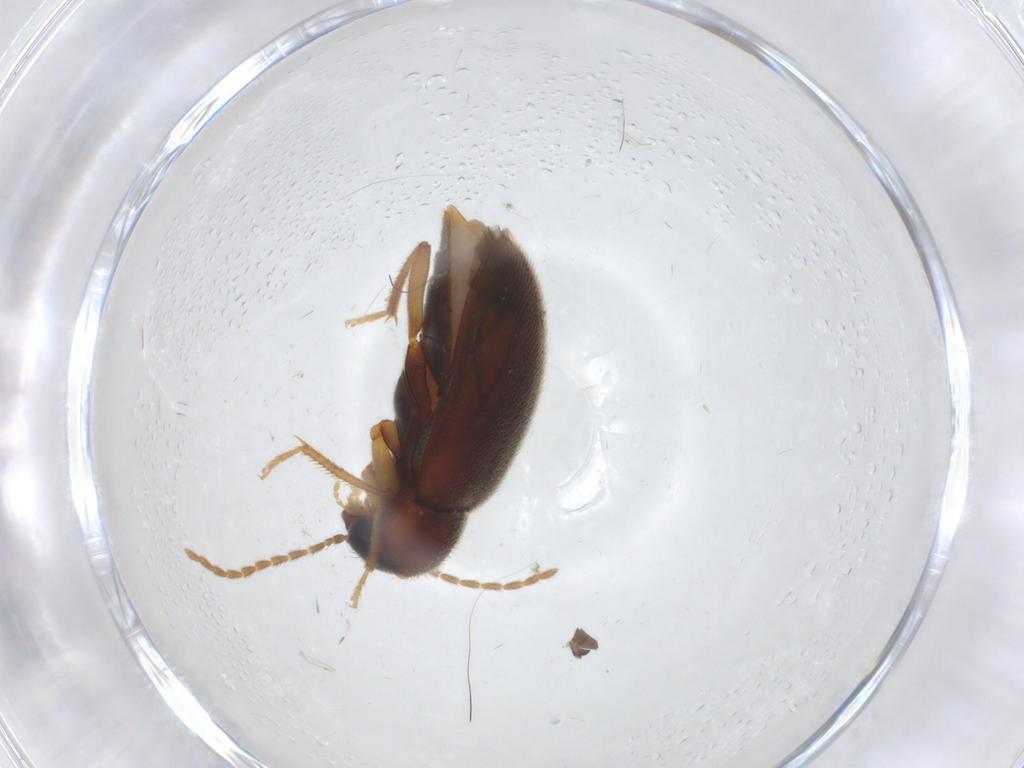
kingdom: Animalia
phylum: Arthropoda
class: Insecta
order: Coleoptera
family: Ptilodactylidae
